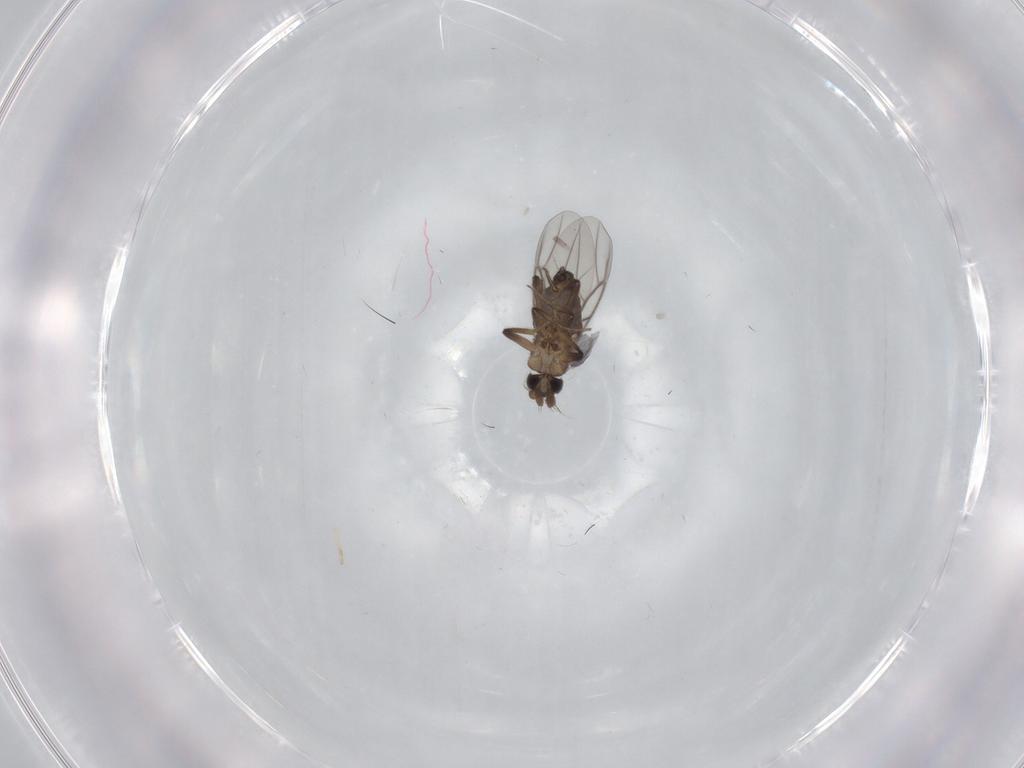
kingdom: Animalia
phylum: Arthropoda
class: Insecta
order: Diptera
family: Phoridae
